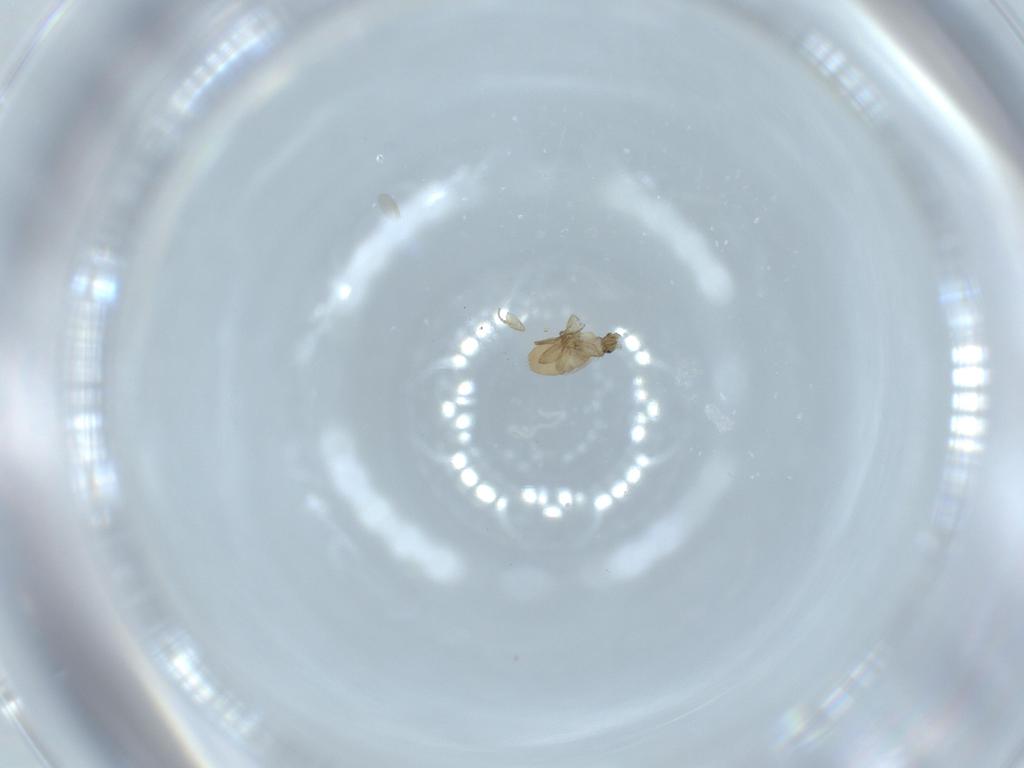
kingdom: Animalia
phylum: Arthropoda
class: Insecta
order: Diptera
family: Phoridae
